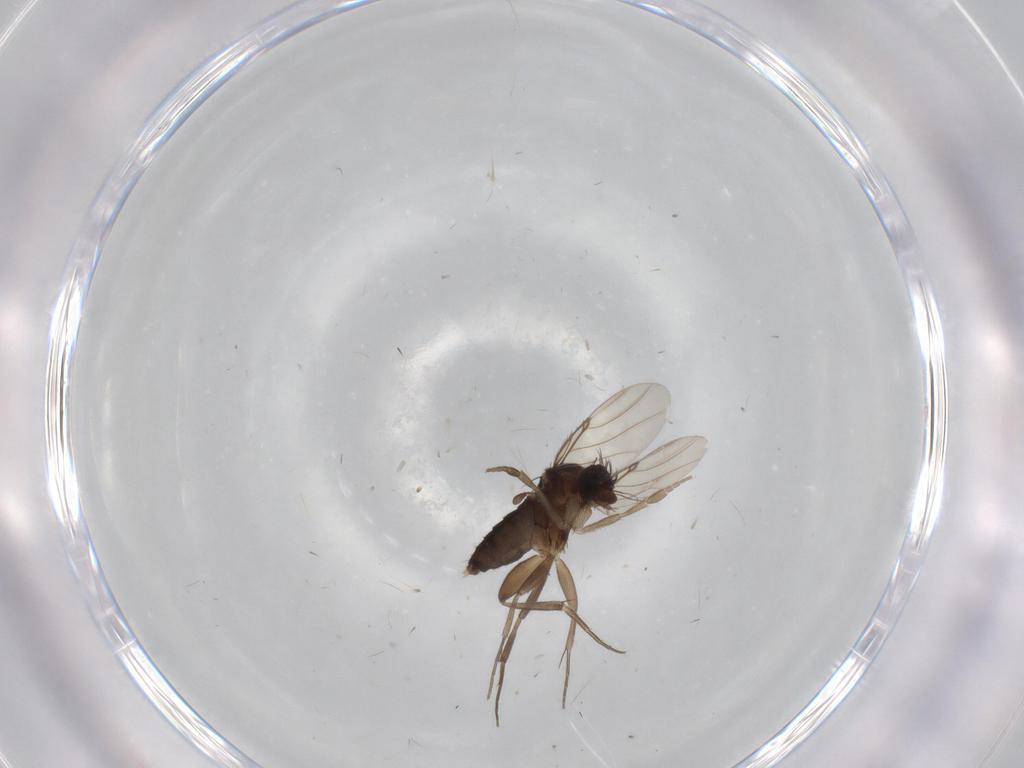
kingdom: Animalia
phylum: Arthropoda
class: Insecta
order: Diptera
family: Phoridae
